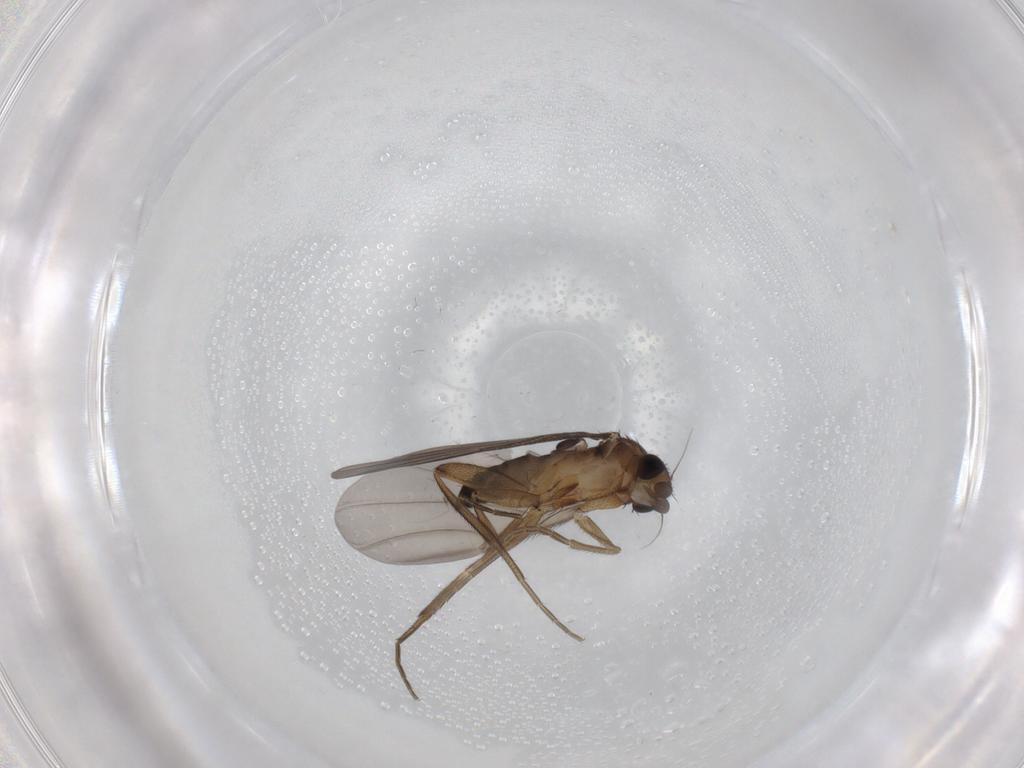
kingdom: Animalia
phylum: Arthropoda
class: Insecta
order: Diptera
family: Phoridae
